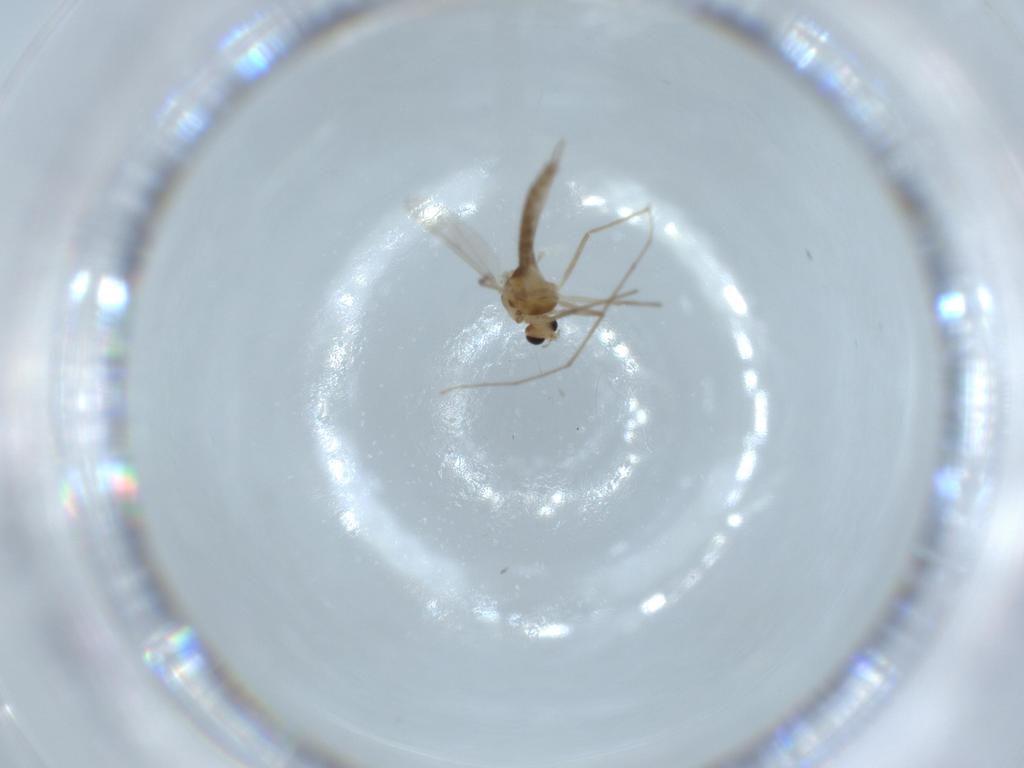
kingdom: Animalia
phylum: Arthropoda
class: Insecta
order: Diptera
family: Chironomidae
